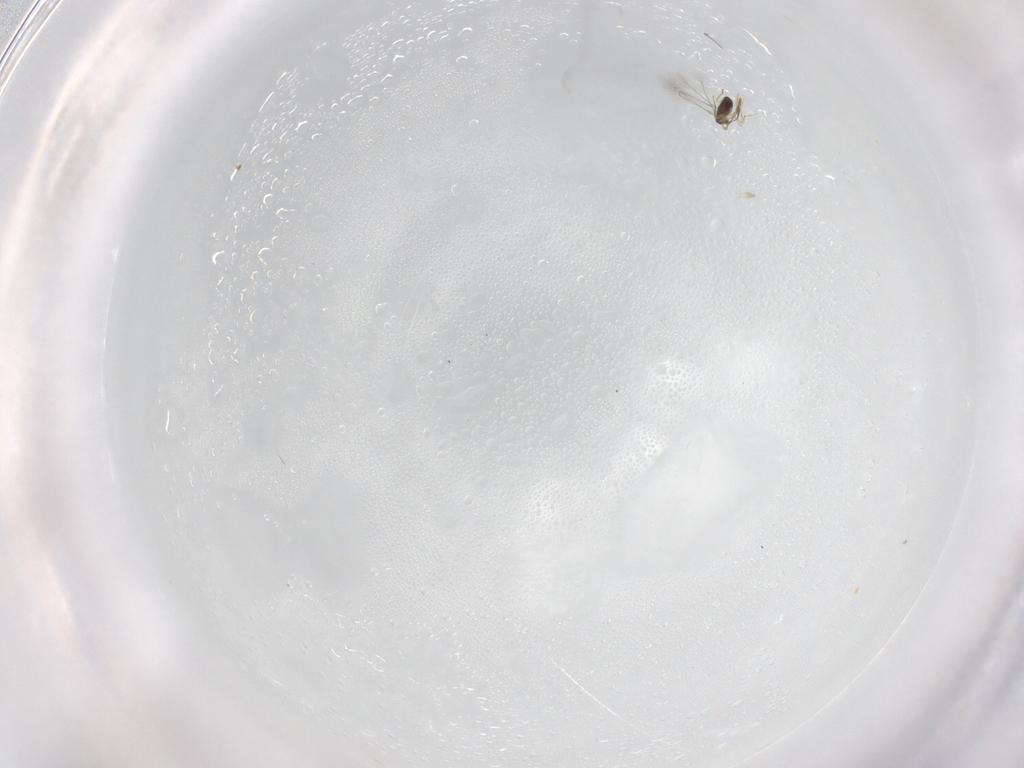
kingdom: Animalia
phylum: Arthropoda
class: Insecta
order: Hymenoptera
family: Mymaridae
